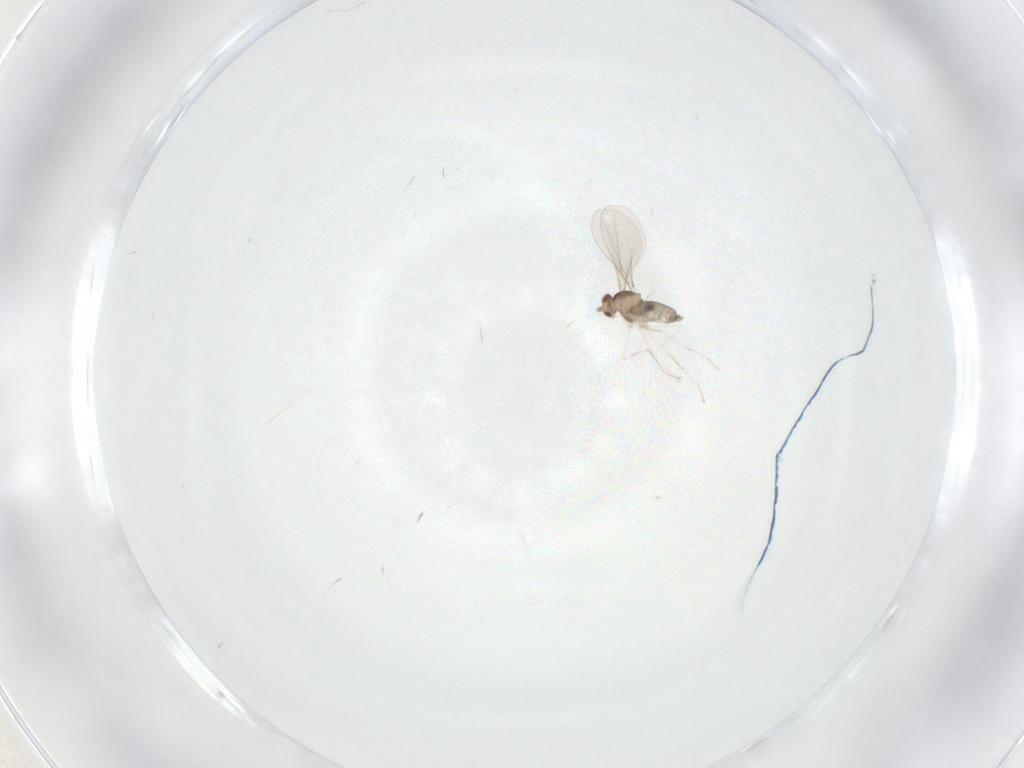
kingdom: Animalia
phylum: Arthropoda
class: Insecta
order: Diptera
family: Cecidomyiidae
